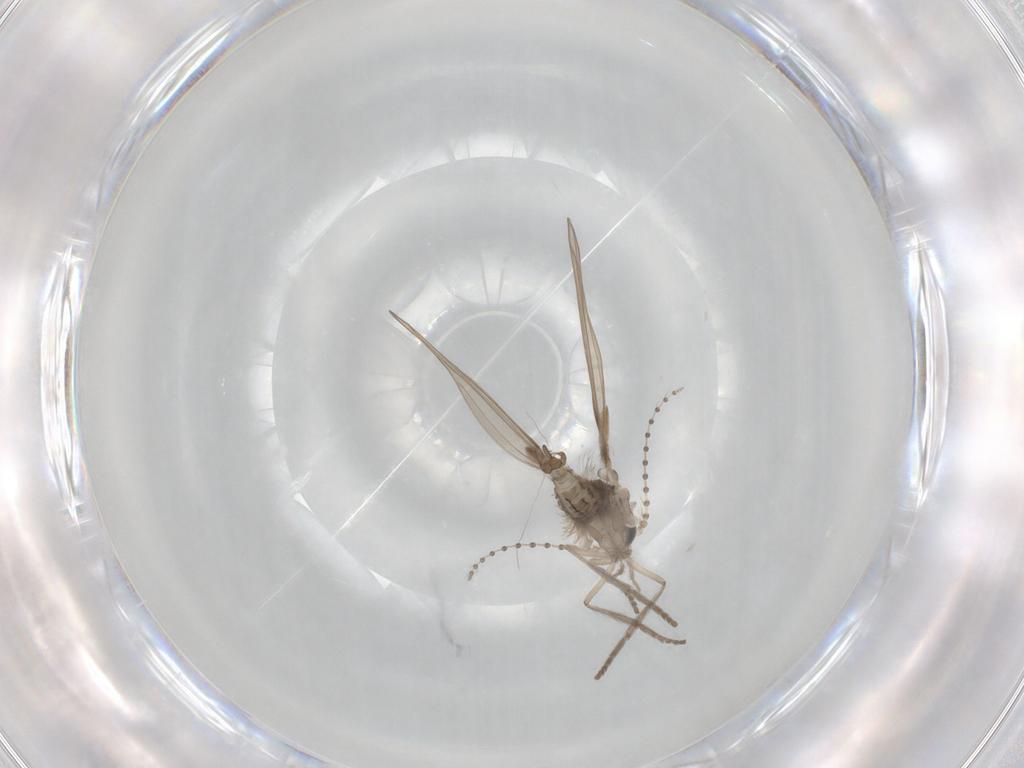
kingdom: Animalia
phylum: Arthropoda
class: Insecta
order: Diptera
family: Psychodidae
